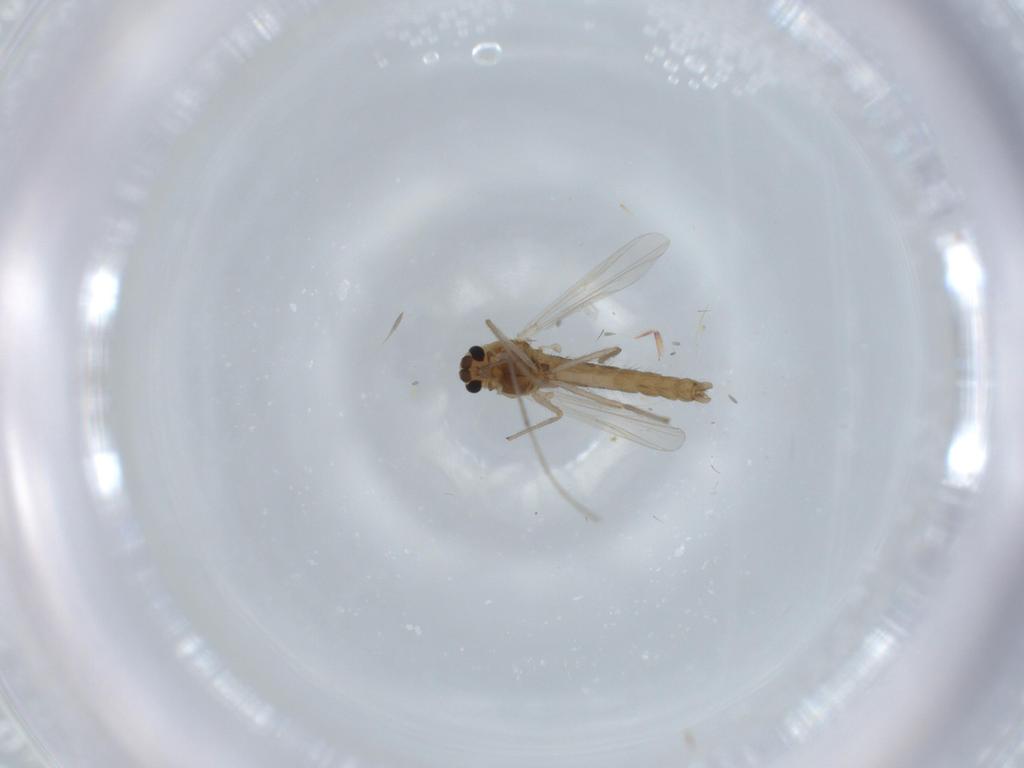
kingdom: Animalia
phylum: Arthropoda
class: Insecta
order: Diptera
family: Chironomidae
